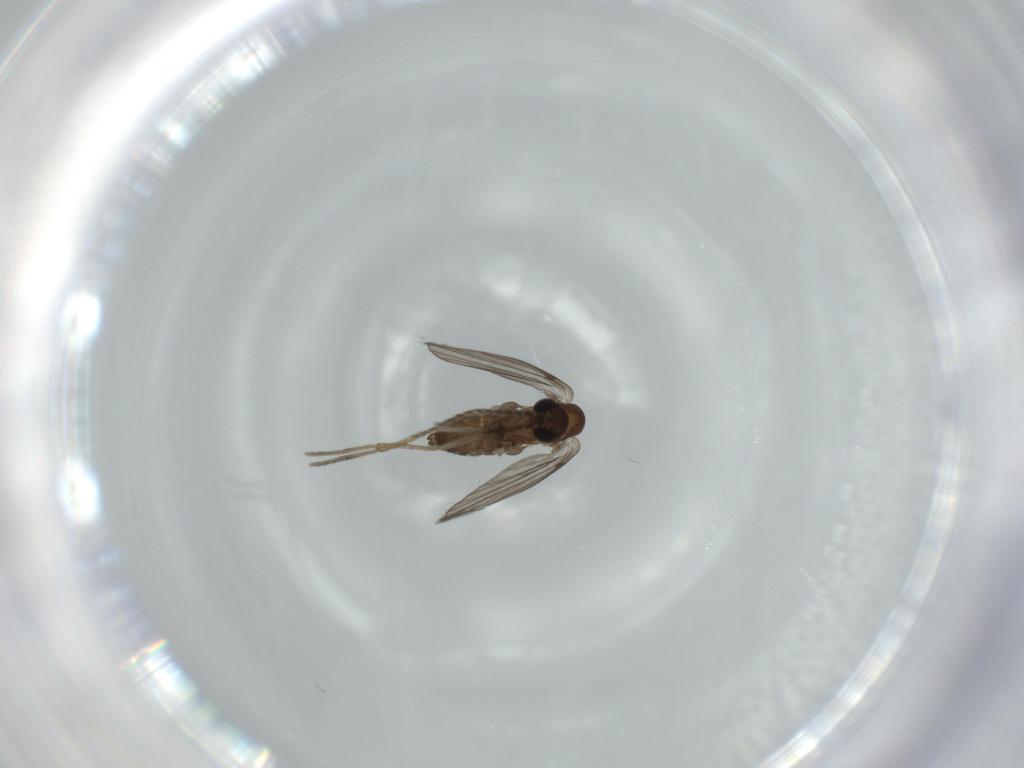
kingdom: Animalia
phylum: Arthropoda
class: Insecta
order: Diptera
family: Psychodidae
